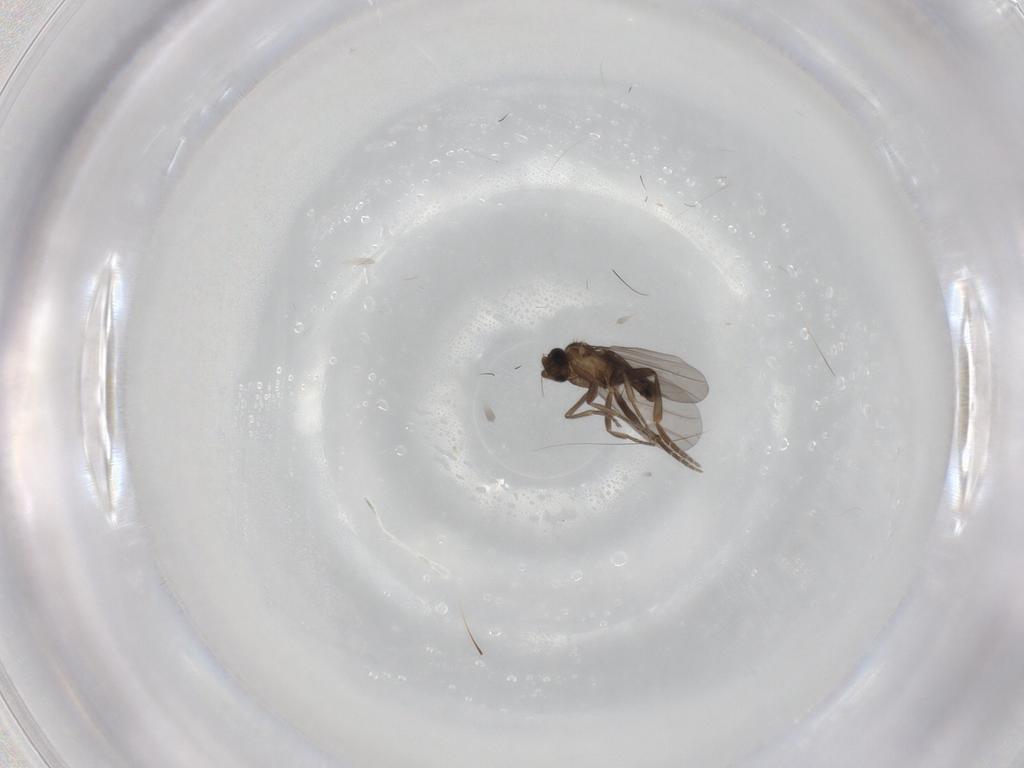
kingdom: Animalia
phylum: Arthropoda
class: Insecta
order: Diptera
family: Phoridae
